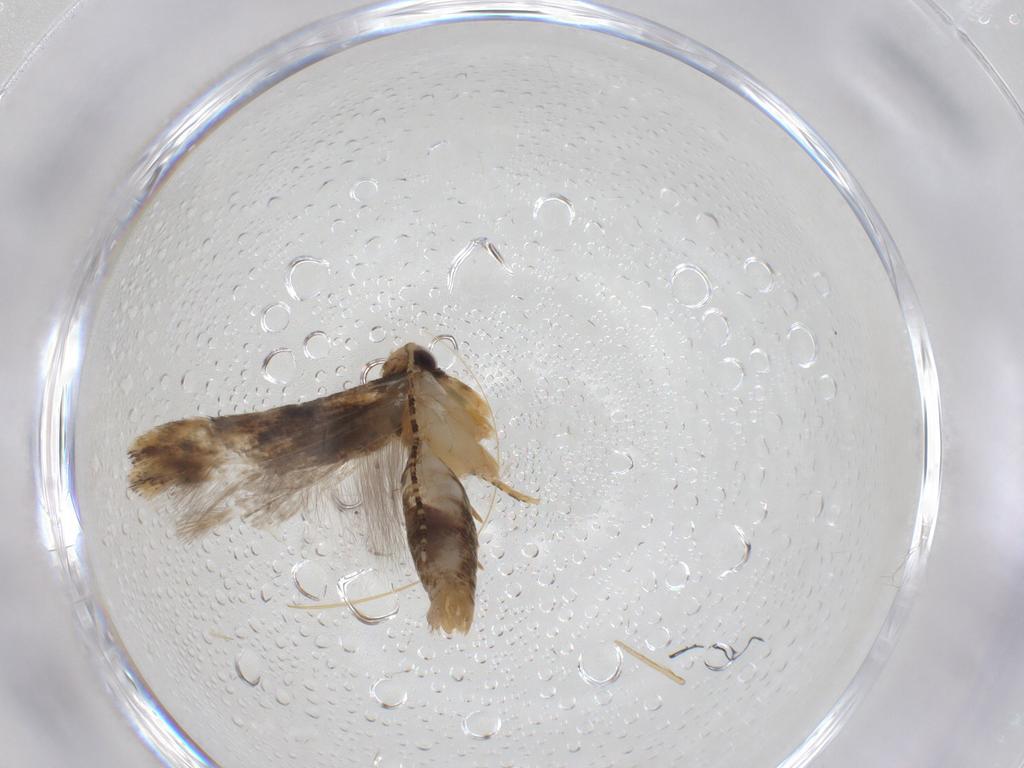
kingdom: Animalia
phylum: Arthropoda
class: Insecta
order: Lepidoptera
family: Gelechiidae
